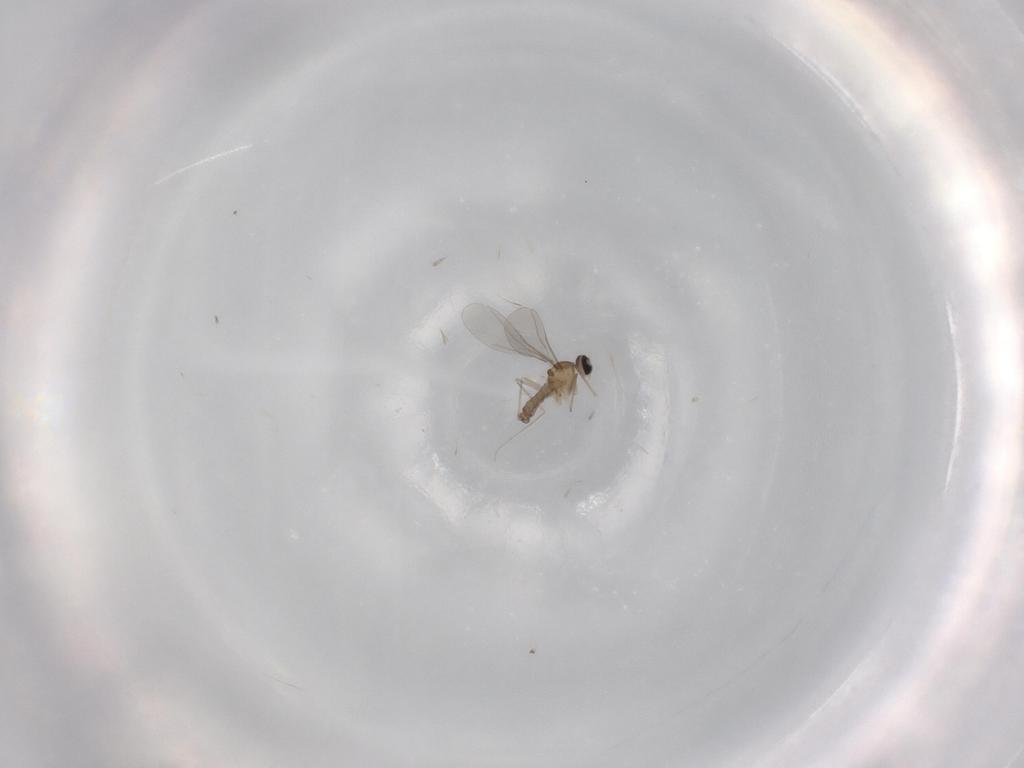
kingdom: Animalia
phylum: Arthropoda
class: Insecta
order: Diptera
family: Cecidomyiidae
